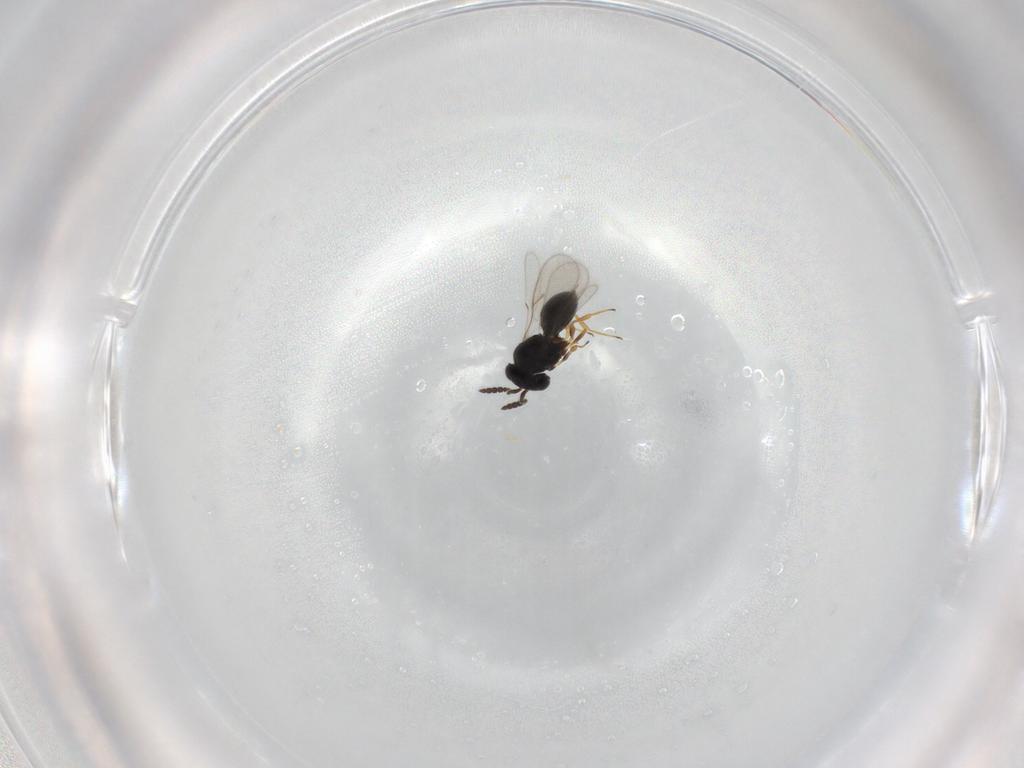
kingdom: Animalia
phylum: Arthropoda
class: Insecta
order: Hymenoptera
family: Scelionidae
